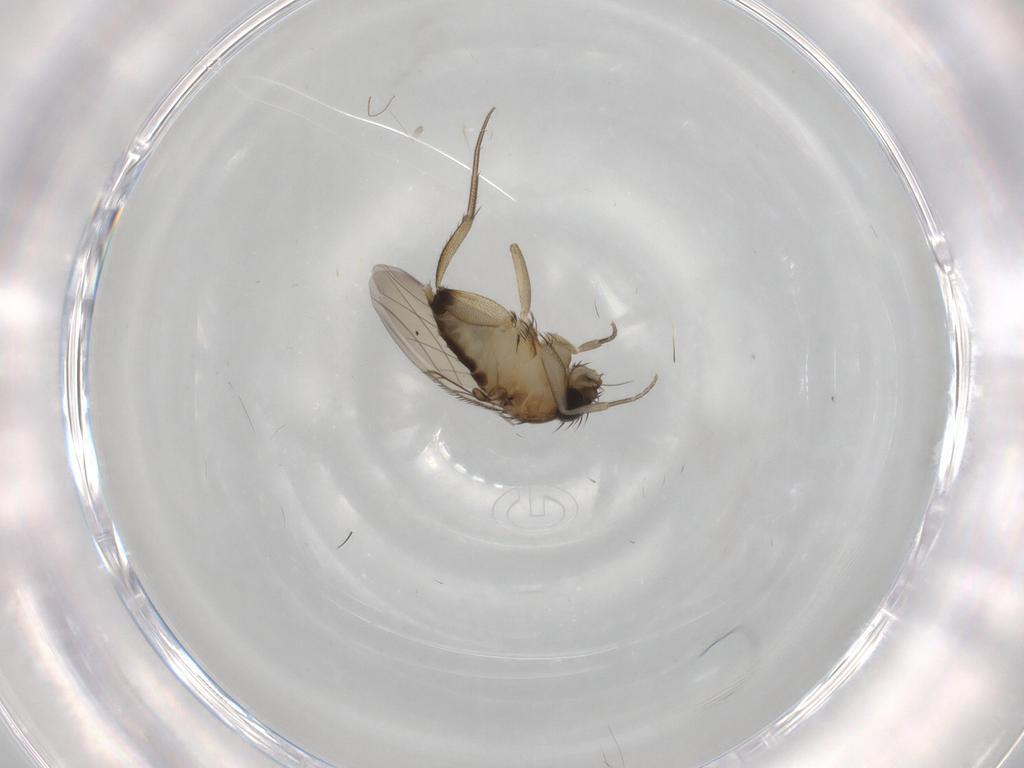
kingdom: Animalia
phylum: Arthropoda
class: Insecta
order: Diptera
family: Phoridae
